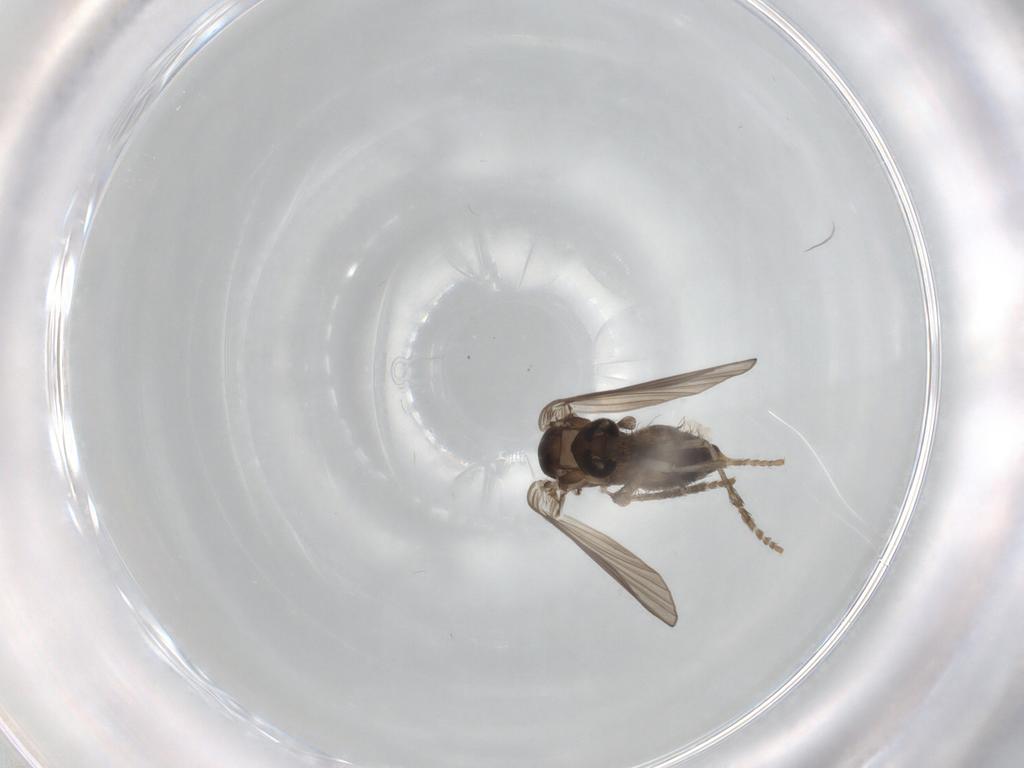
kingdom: Animalia
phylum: Arthropoda
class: Insecta
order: Diptera
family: Psychodidae
